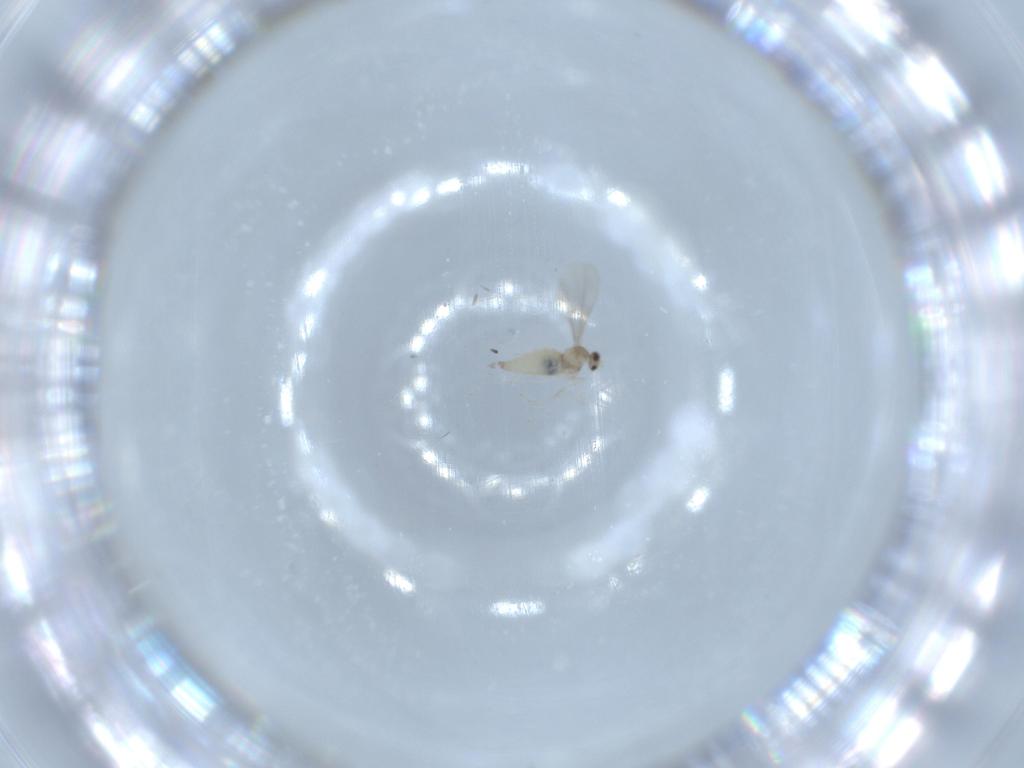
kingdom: Animalia
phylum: Arthropoda
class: Insecta
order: Diptera
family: Cecidomyiidae
